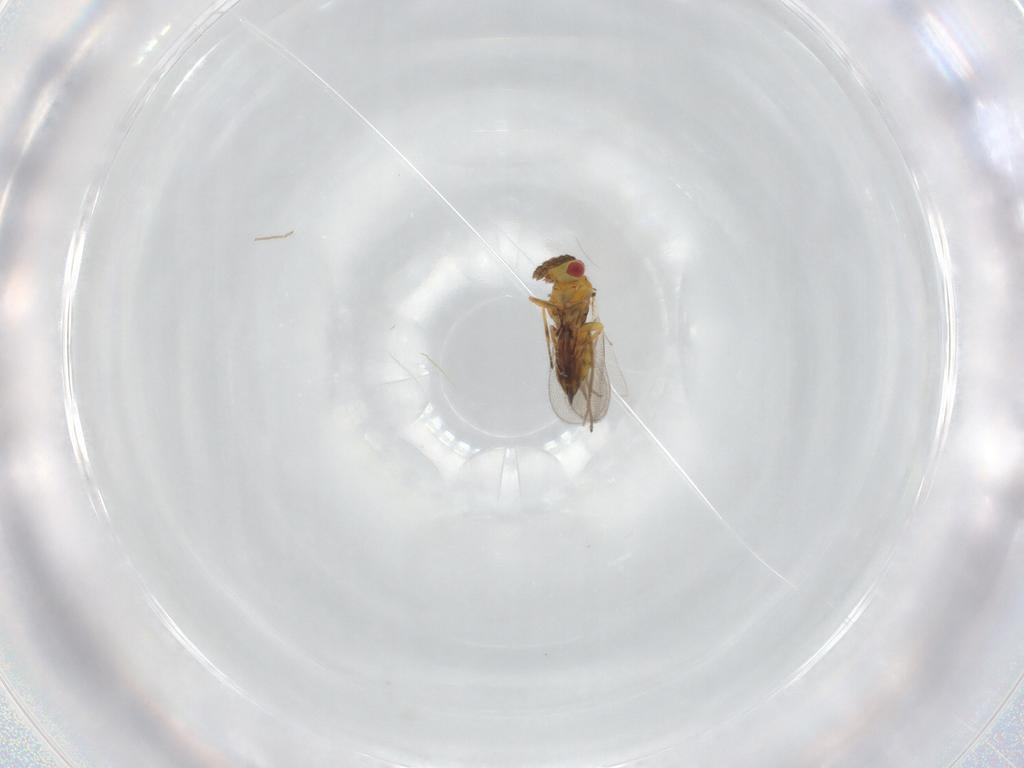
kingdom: Animalia
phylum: Arthropoda
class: Insecta
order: Hymenoptera
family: Eulophidae
